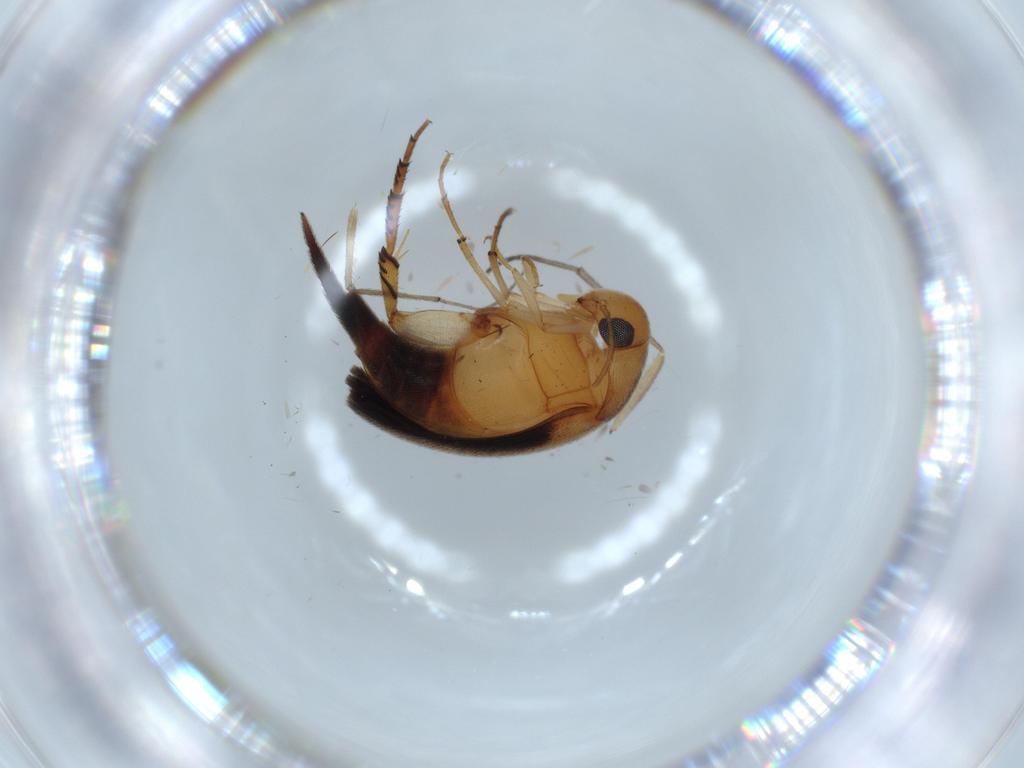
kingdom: Animalia
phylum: Arthropoda
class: Insecta
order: Coleoptera
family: Mordellidae
